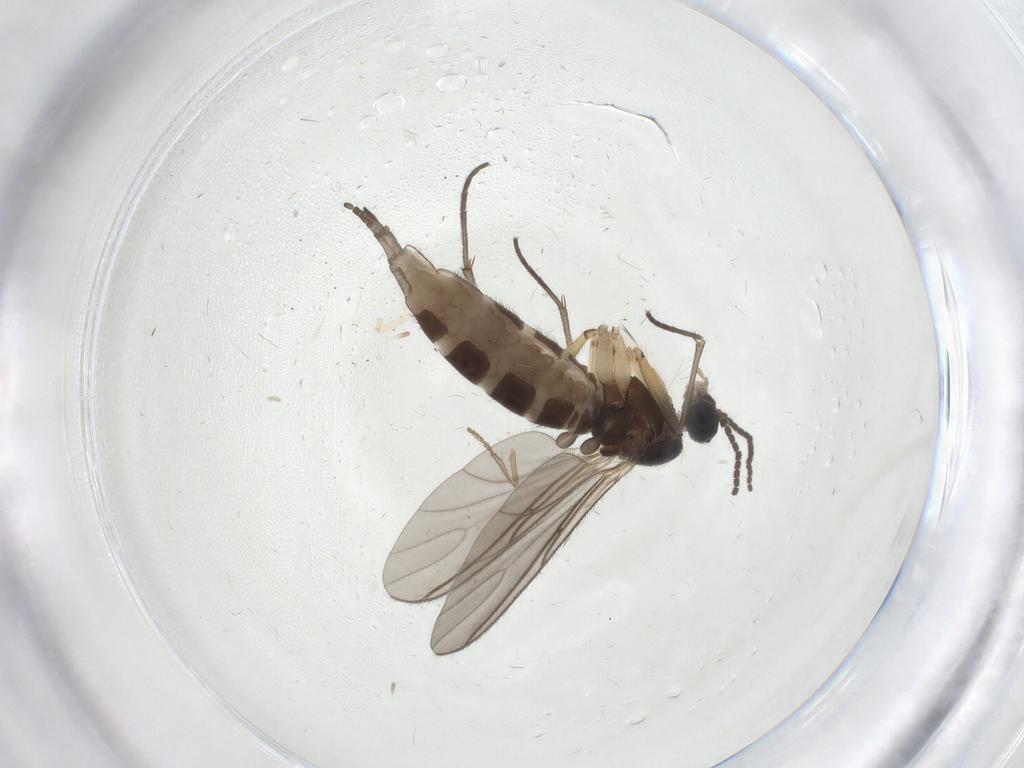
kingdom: Animalia
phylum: Arthropoda
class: Insecta
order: Diptera
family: Sciaridae
